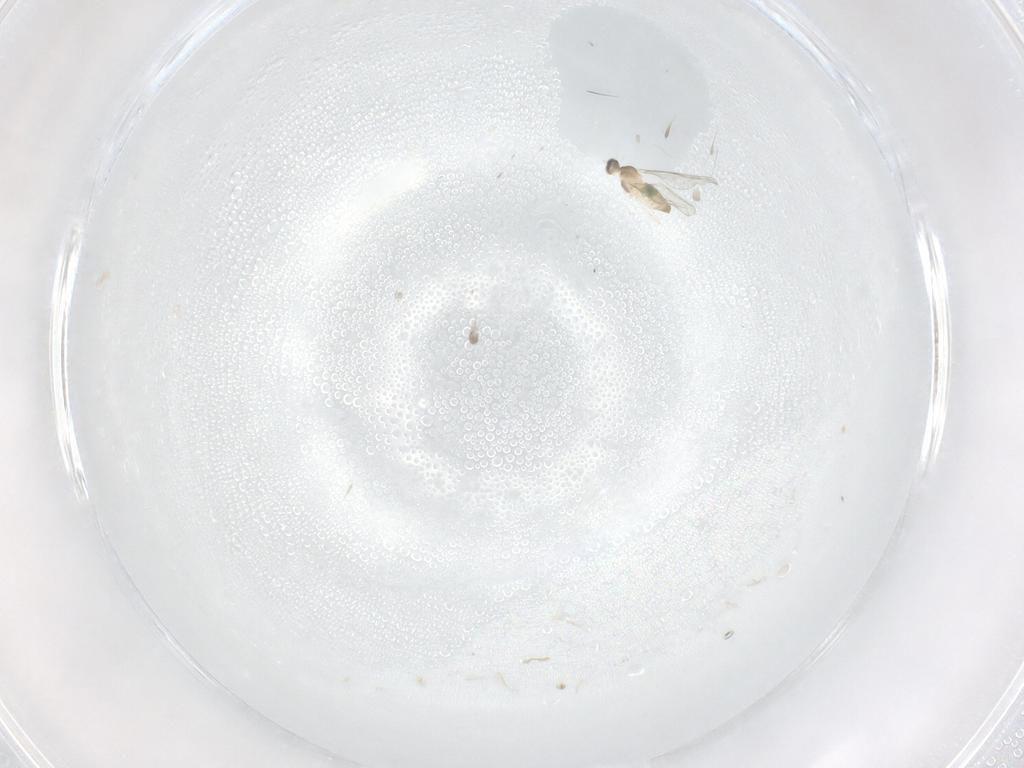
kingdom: Animalia
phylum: Arthropoda
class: Insecta
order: Diptera
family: Cecidomyiidae
